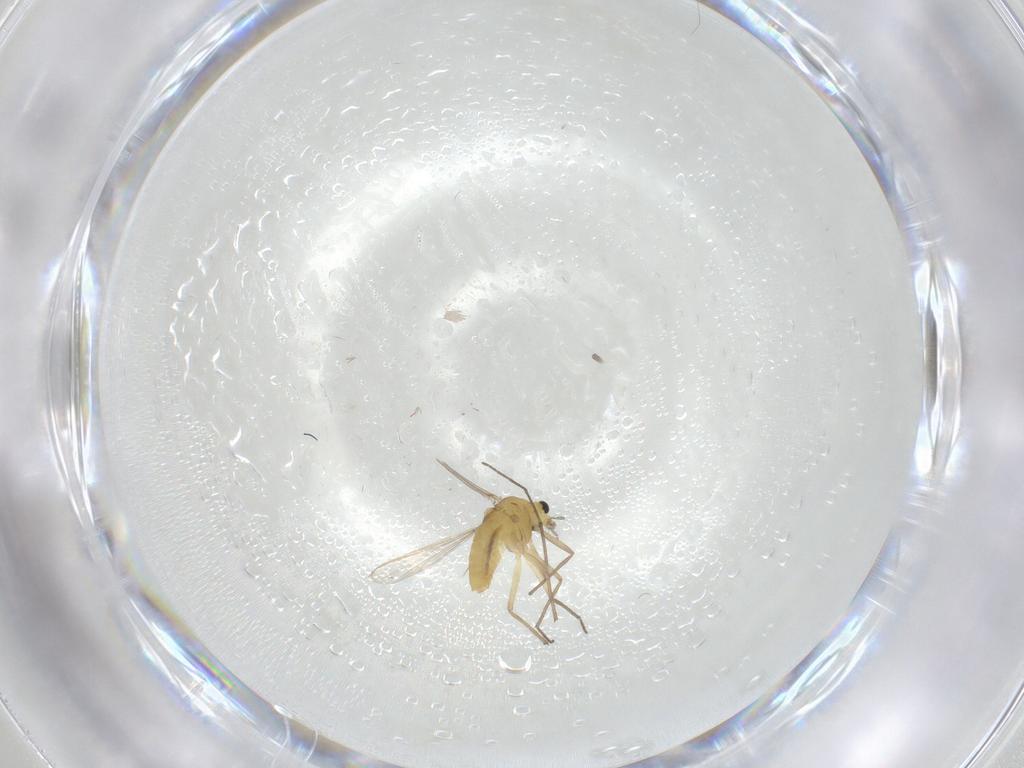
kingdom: Animalia
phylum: Arthropoda
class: Insecta
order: Diptera
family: Chironomidae
